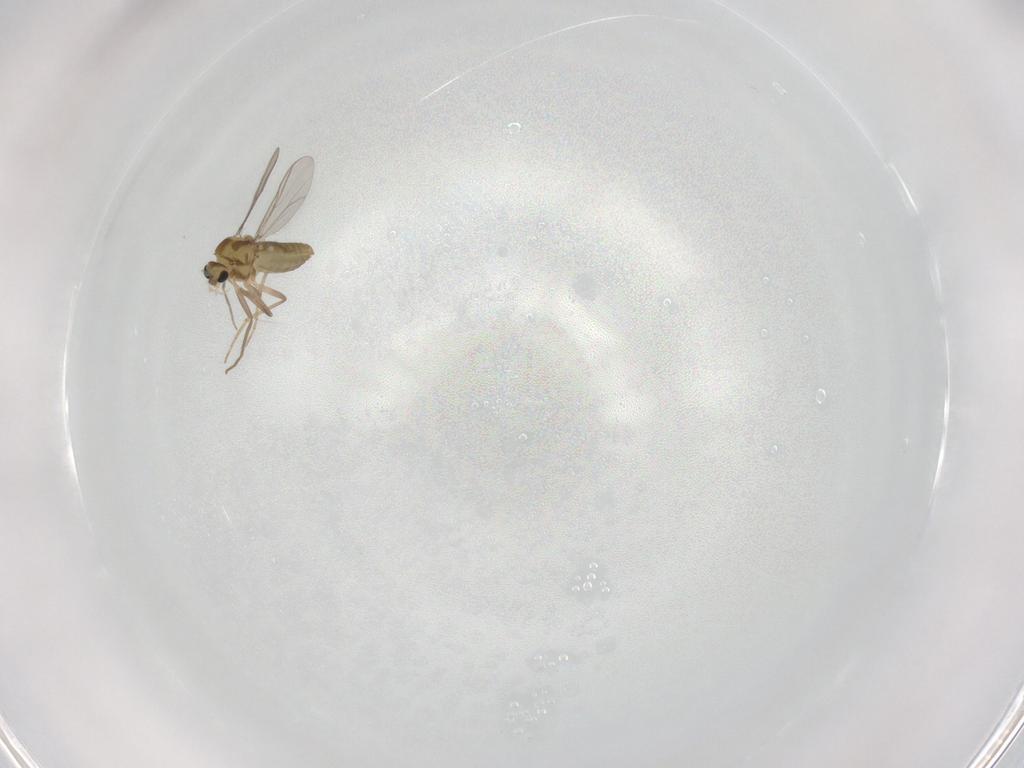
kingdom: Animalia
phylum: Arthropoda
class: Insecta
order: Diptera
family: Chironomidae
